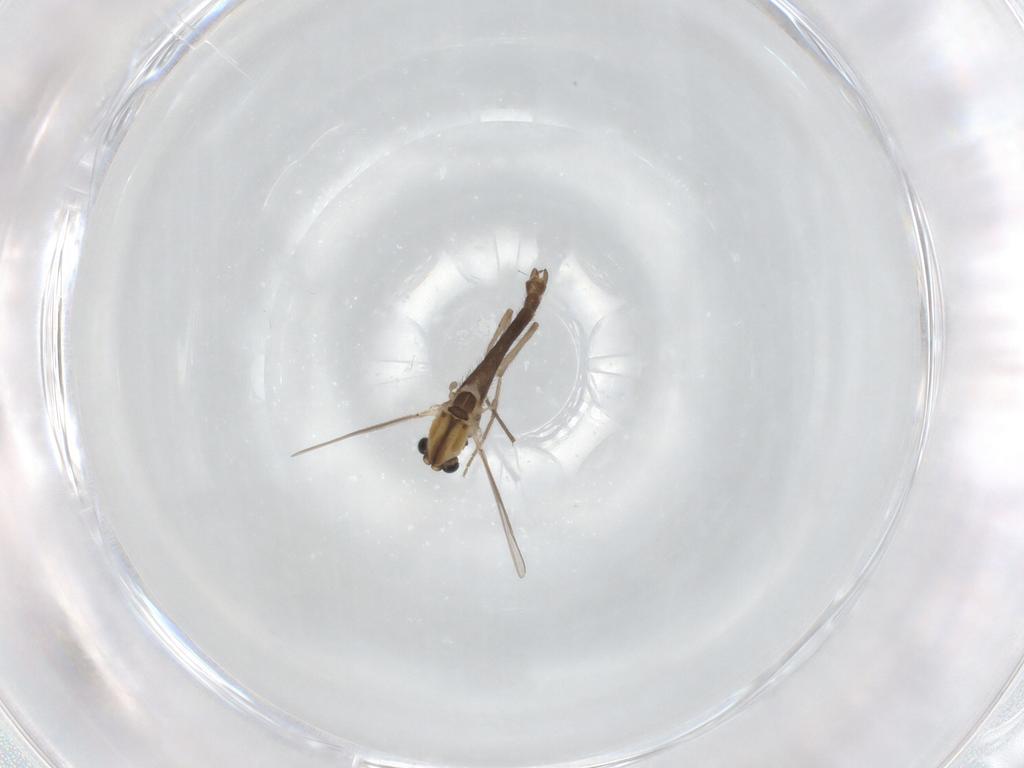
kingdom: Animalia
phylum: Arthropoda
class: Insecta
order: Diptera
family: Chironomidae
